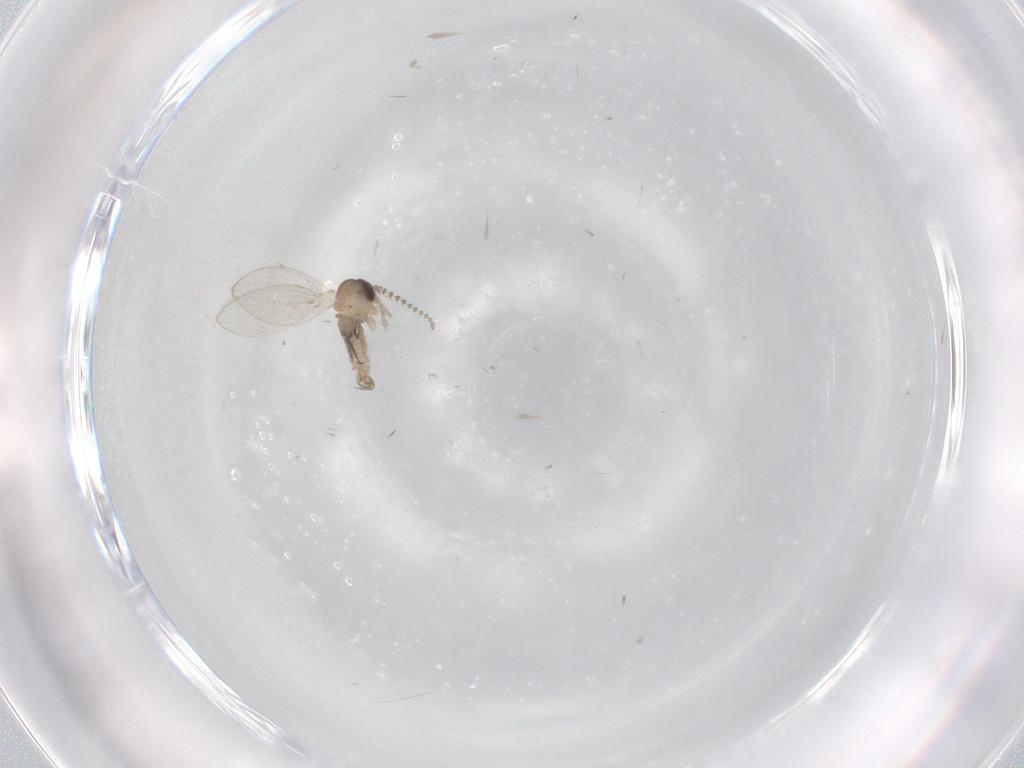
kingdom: Animalia
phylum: Arthropoda
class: Insecta
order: Diptera
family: Psychodidae
